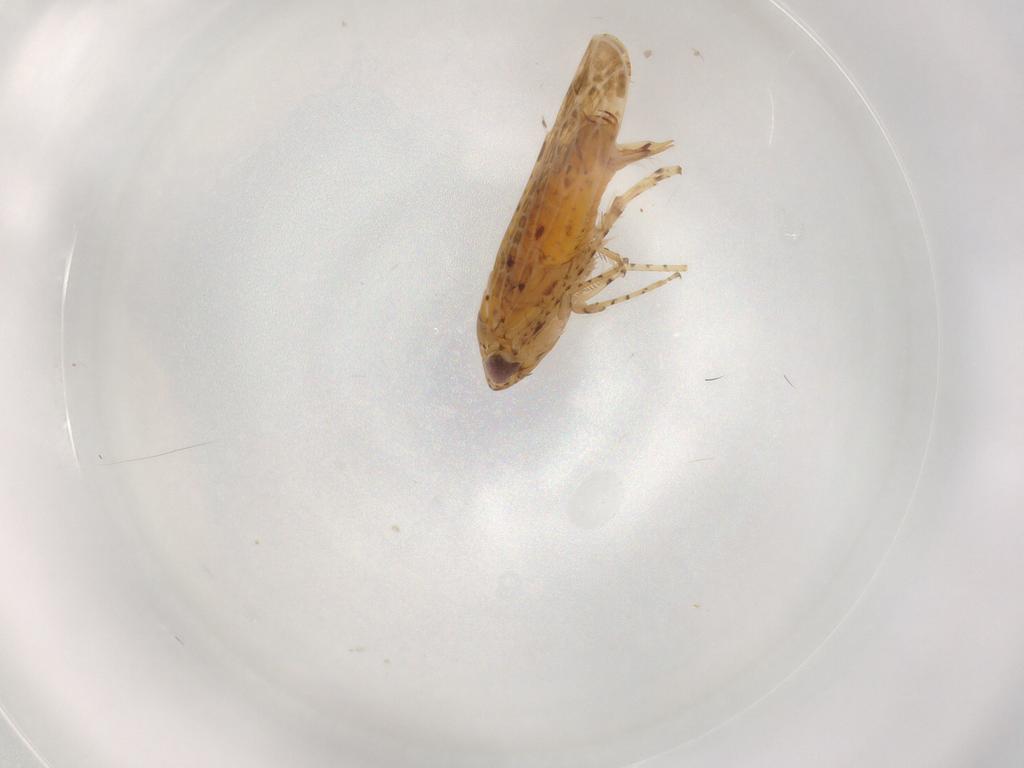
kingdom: Animalia
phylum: Arthropoda
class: Insecta
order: Hemiptera
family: Cicadellidae
